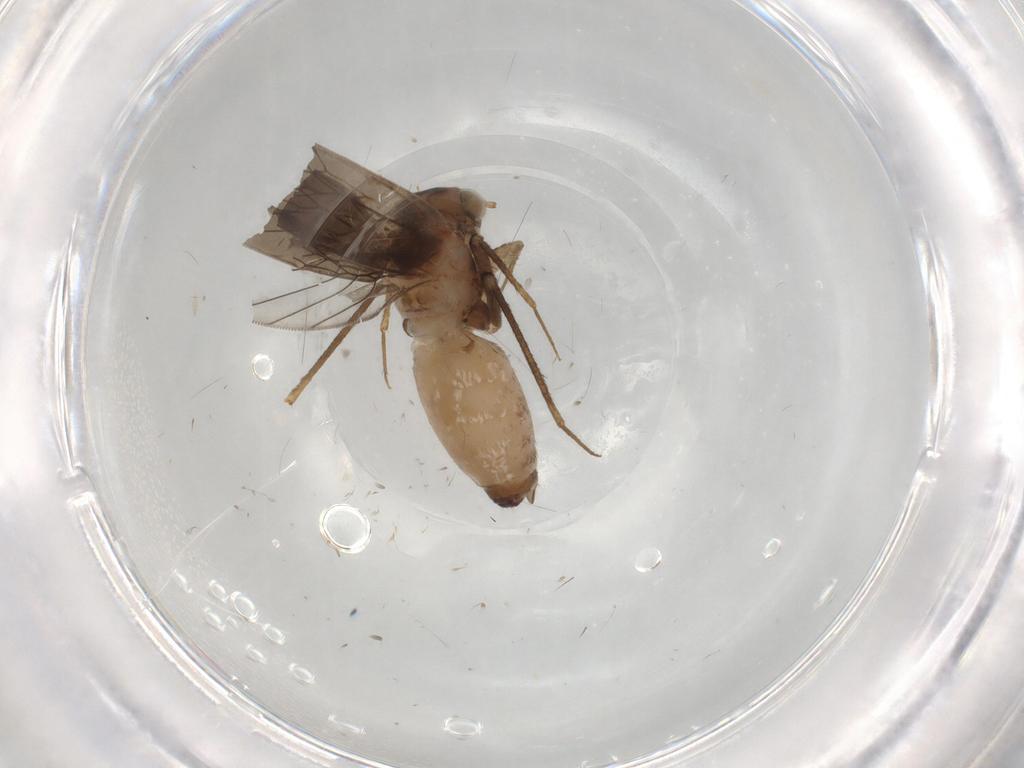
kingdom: Animalia
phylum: Arthropoda
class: Insecta
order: Psocodea
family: Lepidopsocidae
